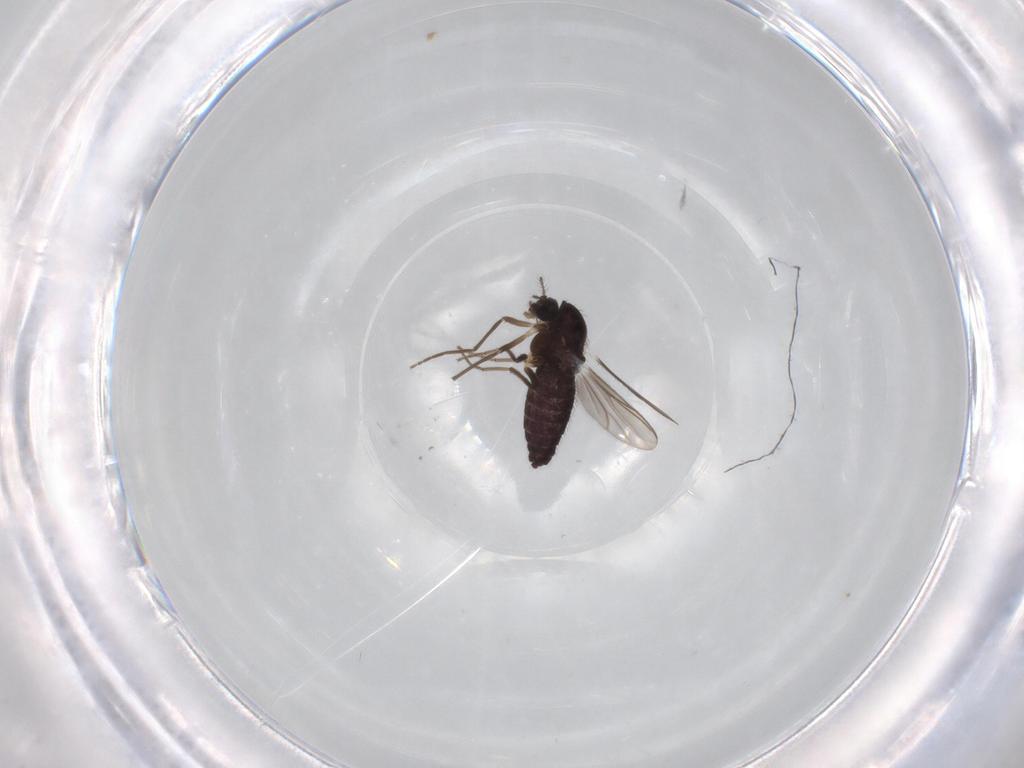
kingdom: Animalia
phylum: Arthropoda
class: Insecta
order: Diptera
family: Chironomidae
